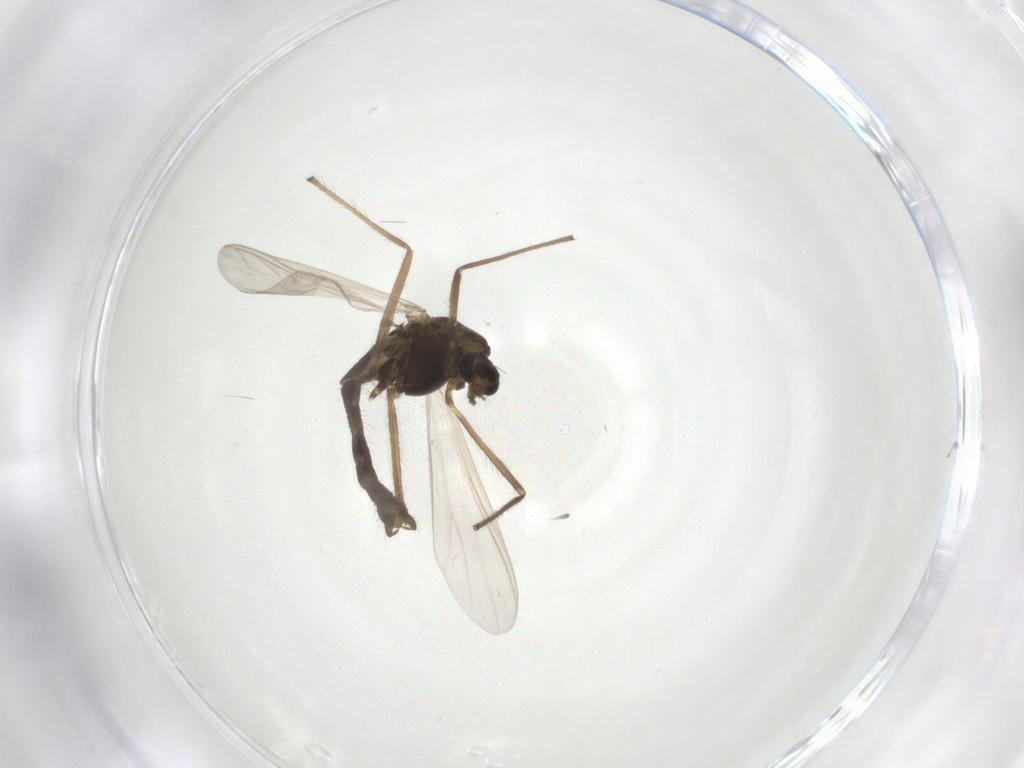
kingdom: Animalia
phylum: Arthropoda
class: Insecta
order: Diptera
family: Chironomidae
